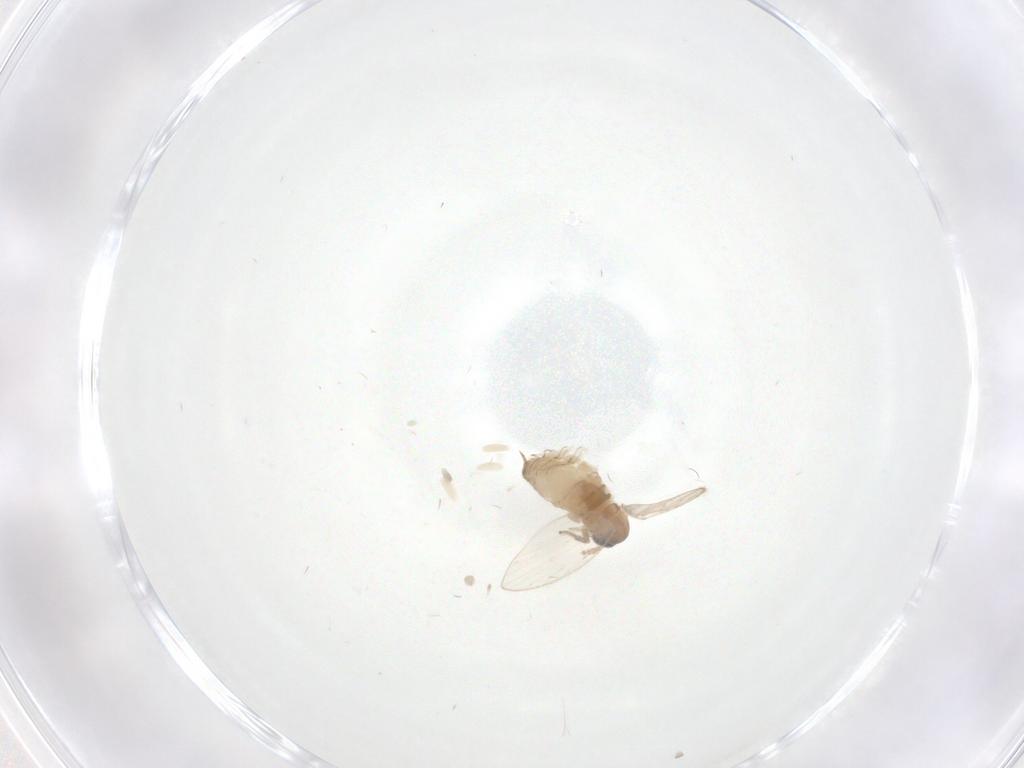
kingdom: Animalia
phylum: Arthropoda
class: Insecta
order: Diptera
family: Psychodidae
